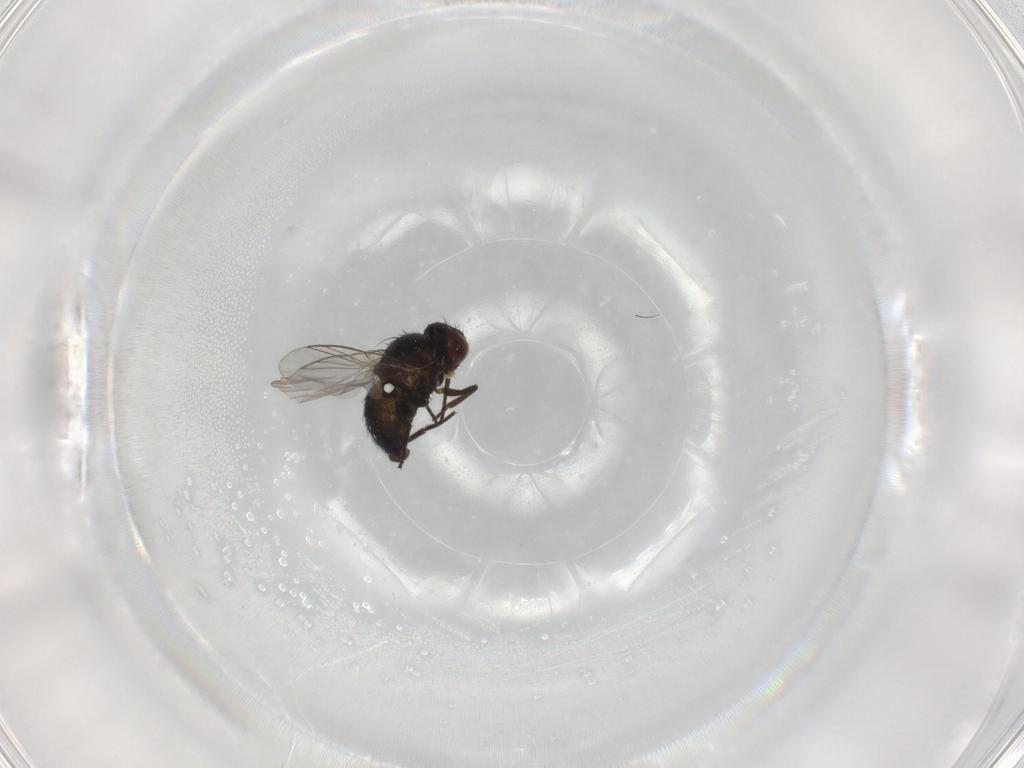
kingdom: Animalia
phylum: Arthropoda
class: Insecta
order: Diptera
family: Agromyzidae
